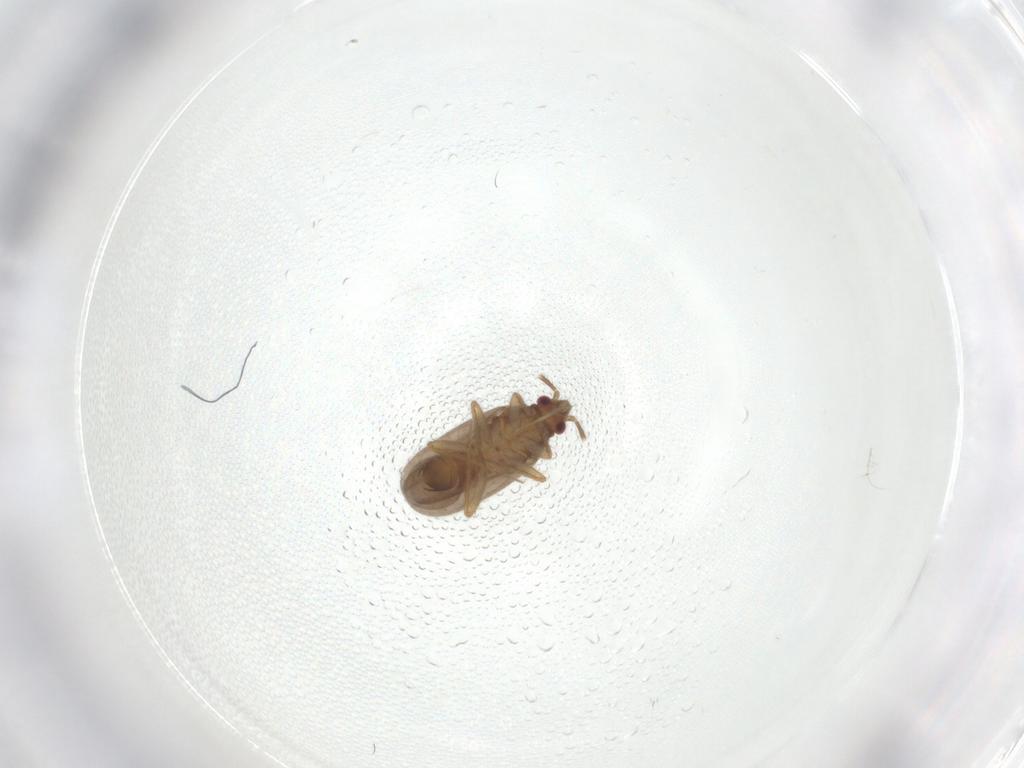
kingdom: Animalia
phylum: Arthropoda
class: Insecta
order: Hemiptera
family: Ceratocombidae
